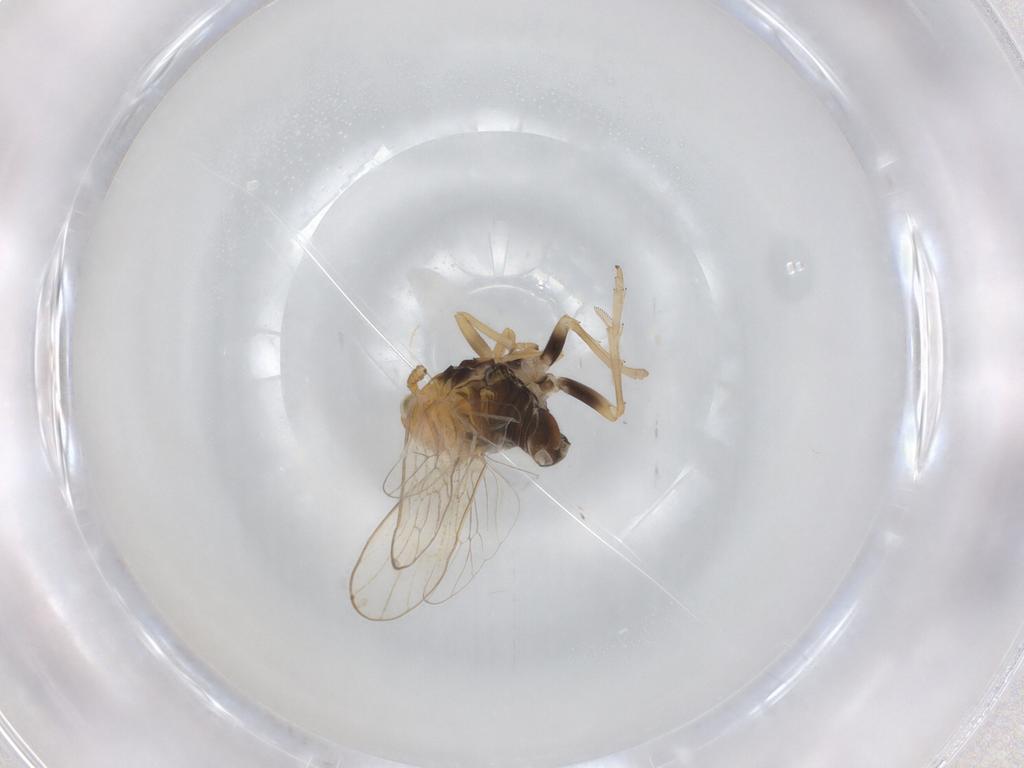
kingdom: Animalia
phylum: Arthropoda
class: Insecta
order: Hemiptera
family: Delphacidae
